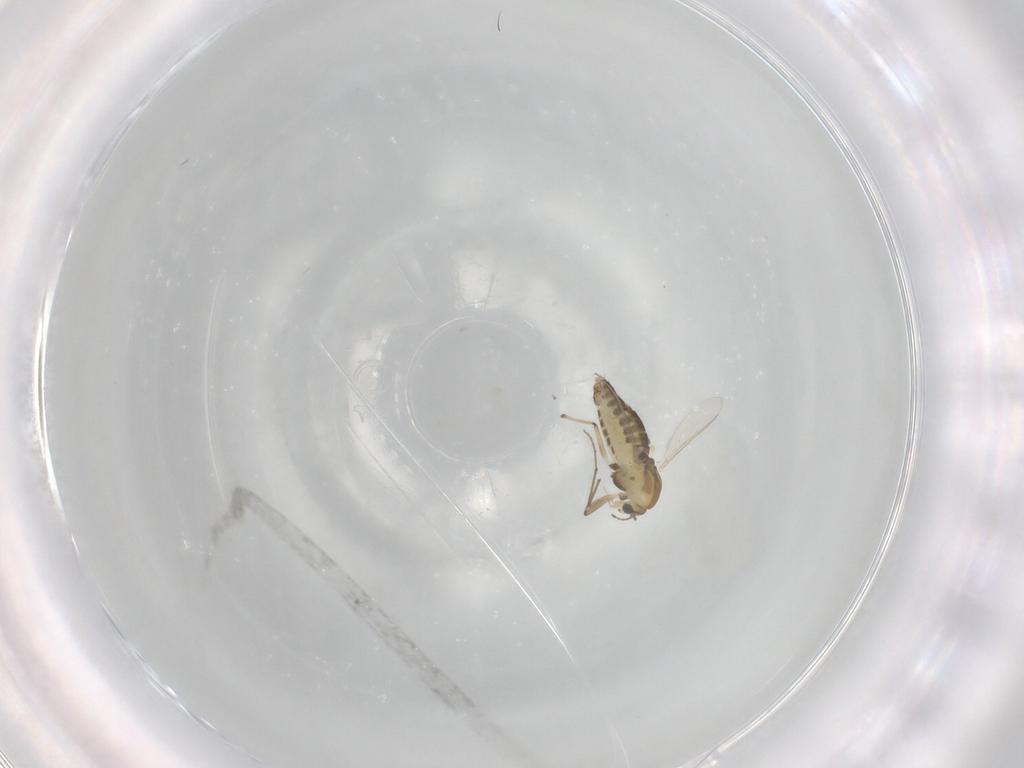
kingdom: Animalia
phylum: Arthropoda
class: Insecta
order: Diptera
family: Chironomidae
